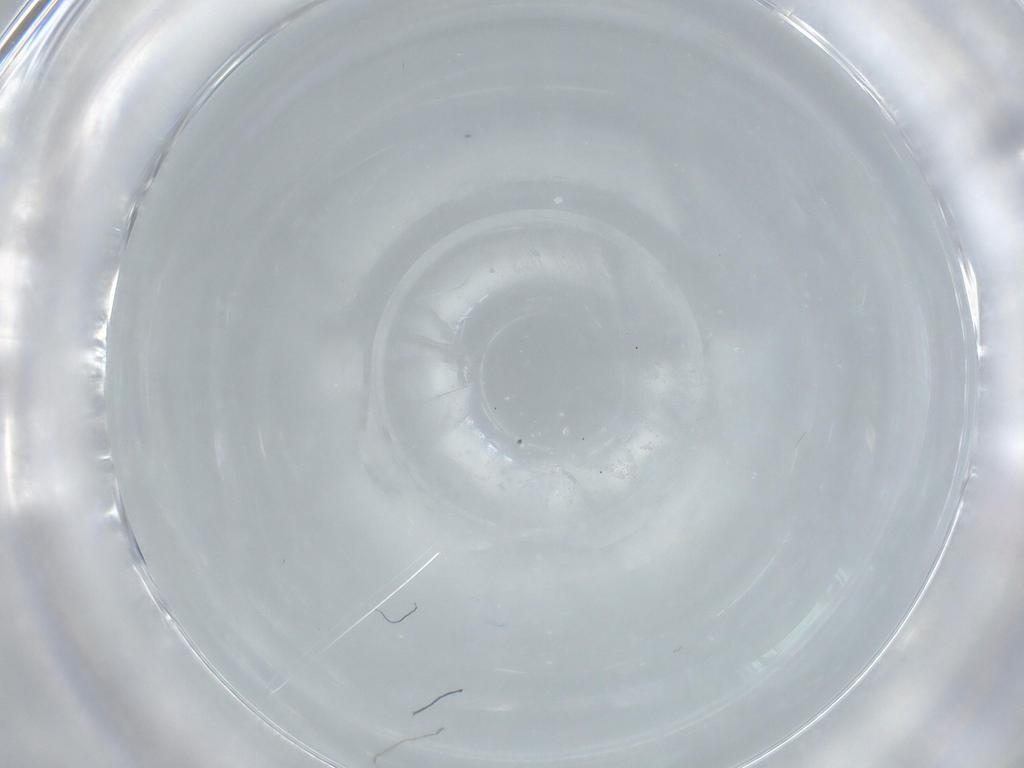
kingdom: Animalia
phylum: Arthropoda
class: Insecta
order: Diptera
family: Milichiidae
